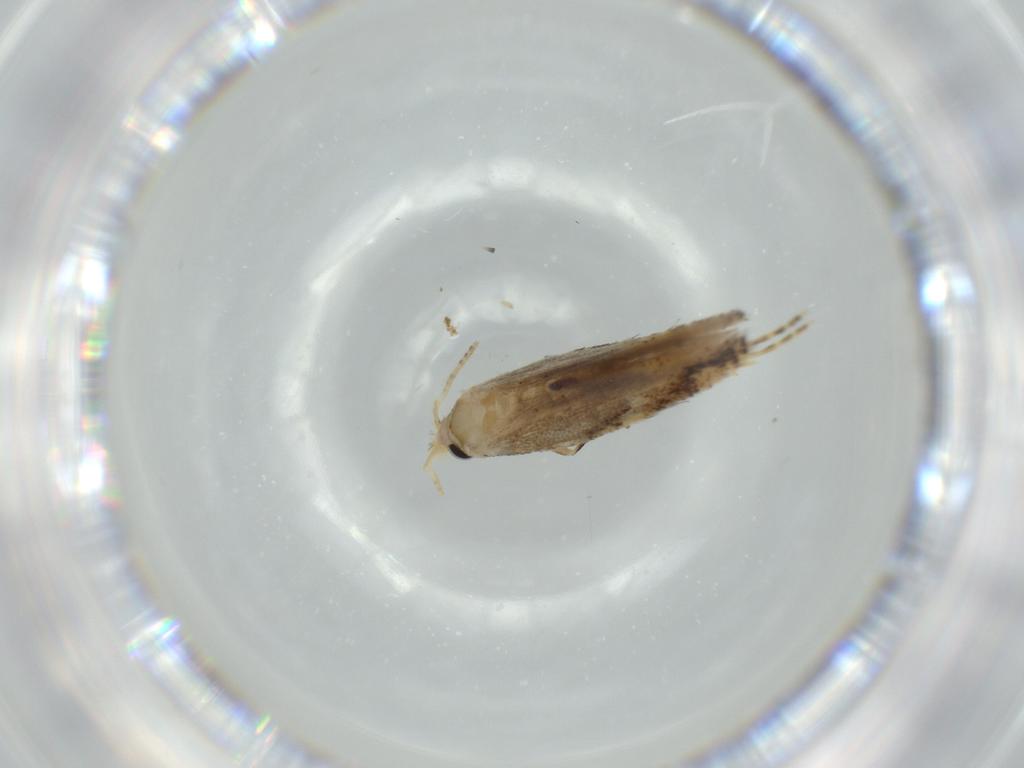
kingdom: Animalia
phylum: Arthropoda
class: Insecta
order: Lepidoptera
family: Bucculatricidae
